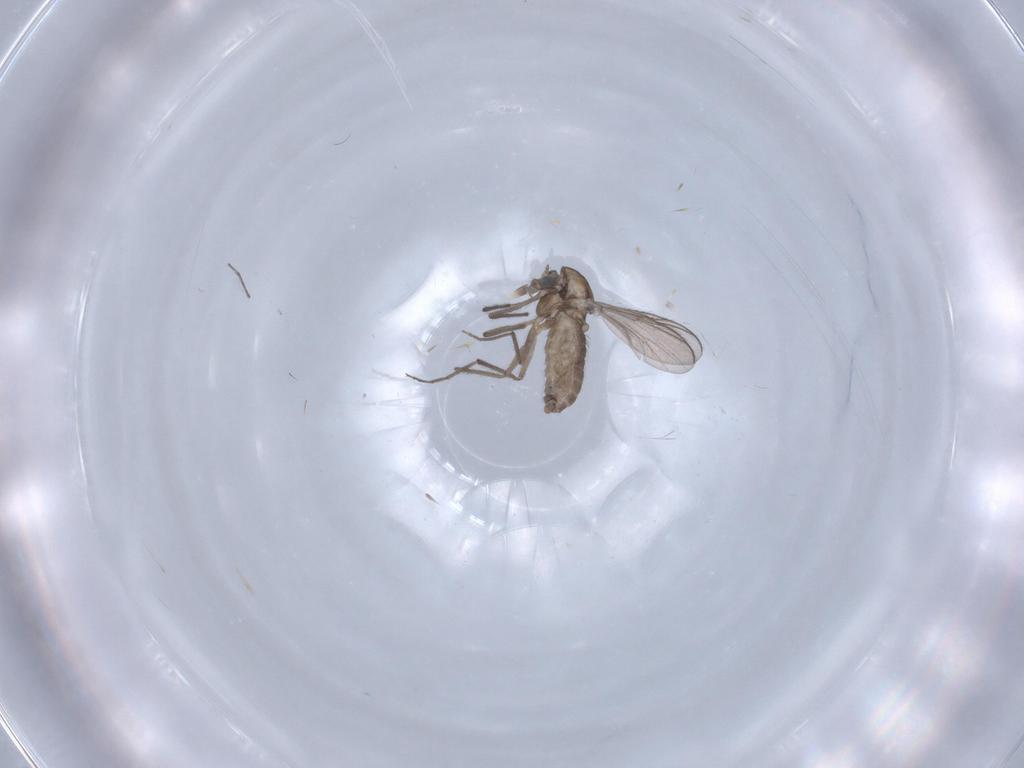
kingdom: Animalia
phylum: Arthropoda
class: Insecta
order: Diptera
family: Chironomidae
